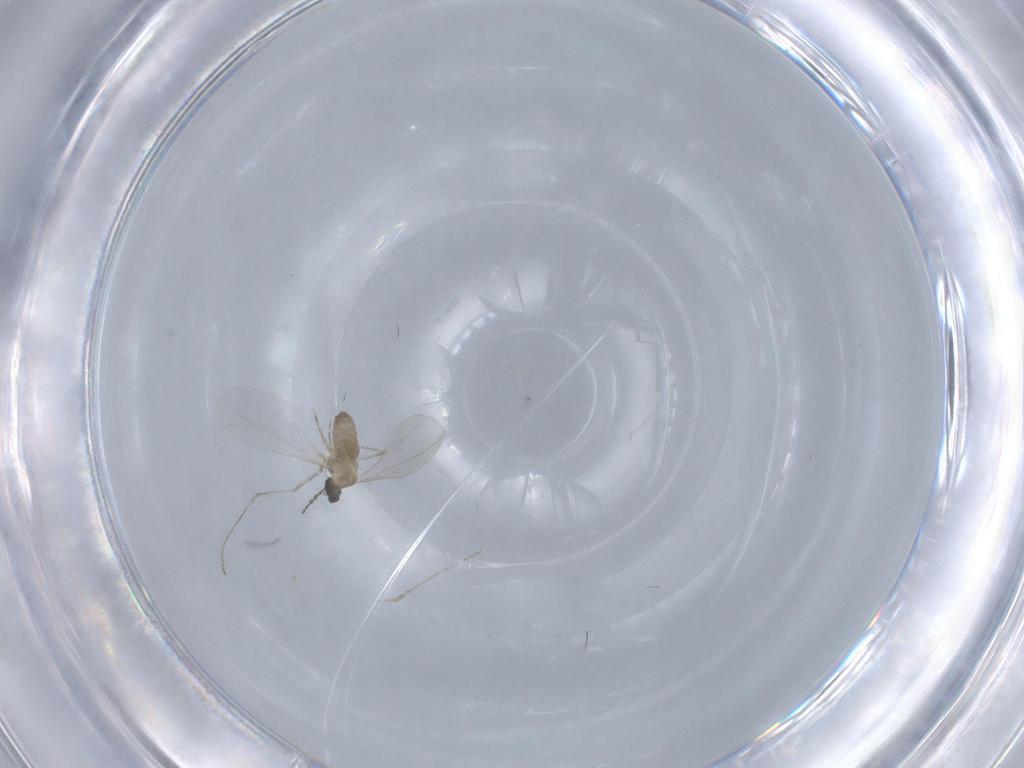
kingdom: Animalia
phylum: Arthropoda
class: Insecta
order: Diptera
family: Cecidomyiidae
